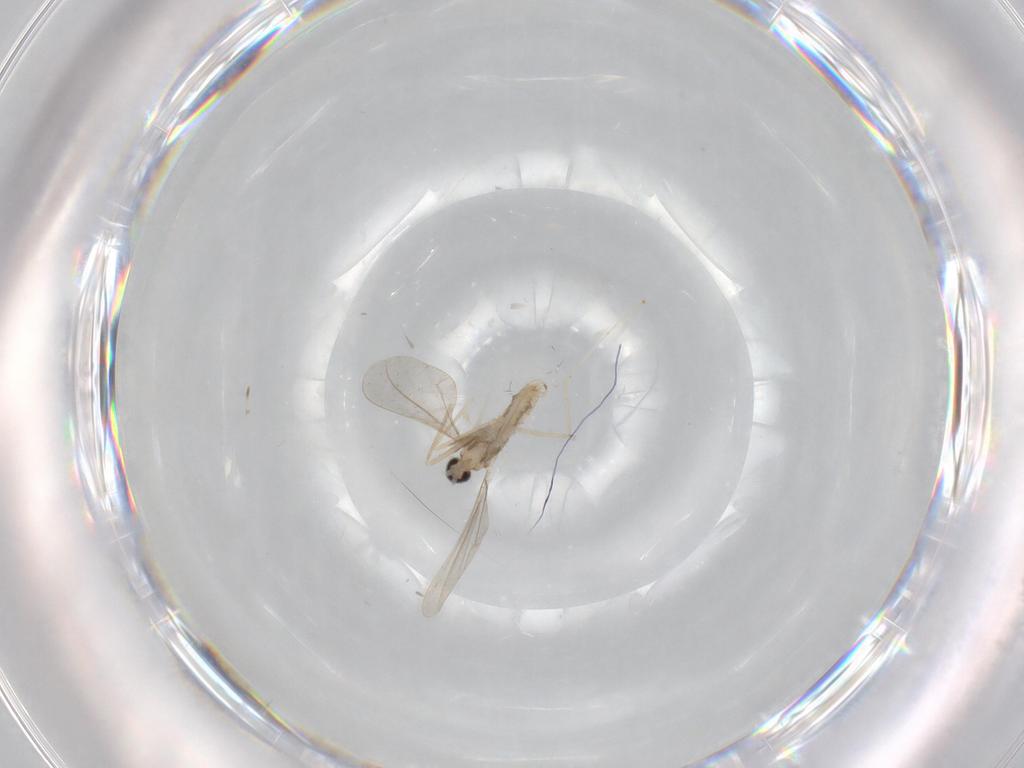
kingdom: Animalia
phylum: Arthropoda
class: Insecta
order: Diptera
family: Cecidomyiidae
